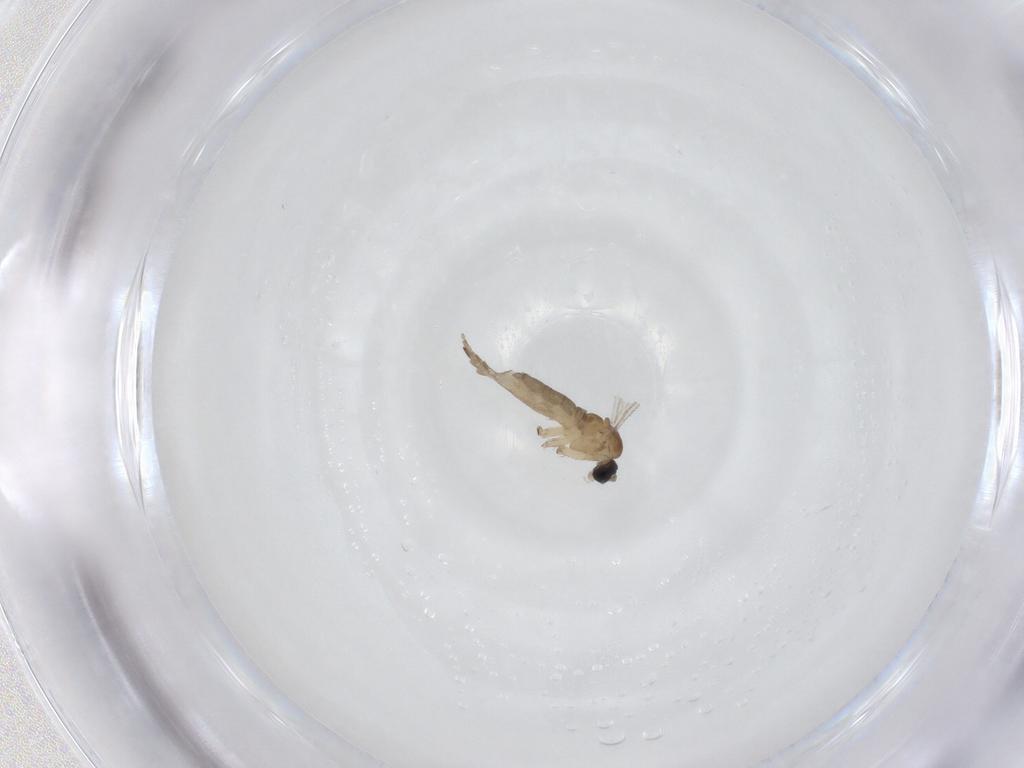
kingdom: Animalia
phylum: Arthropoda
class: Insecta
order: Diptera
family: Sciaridae
